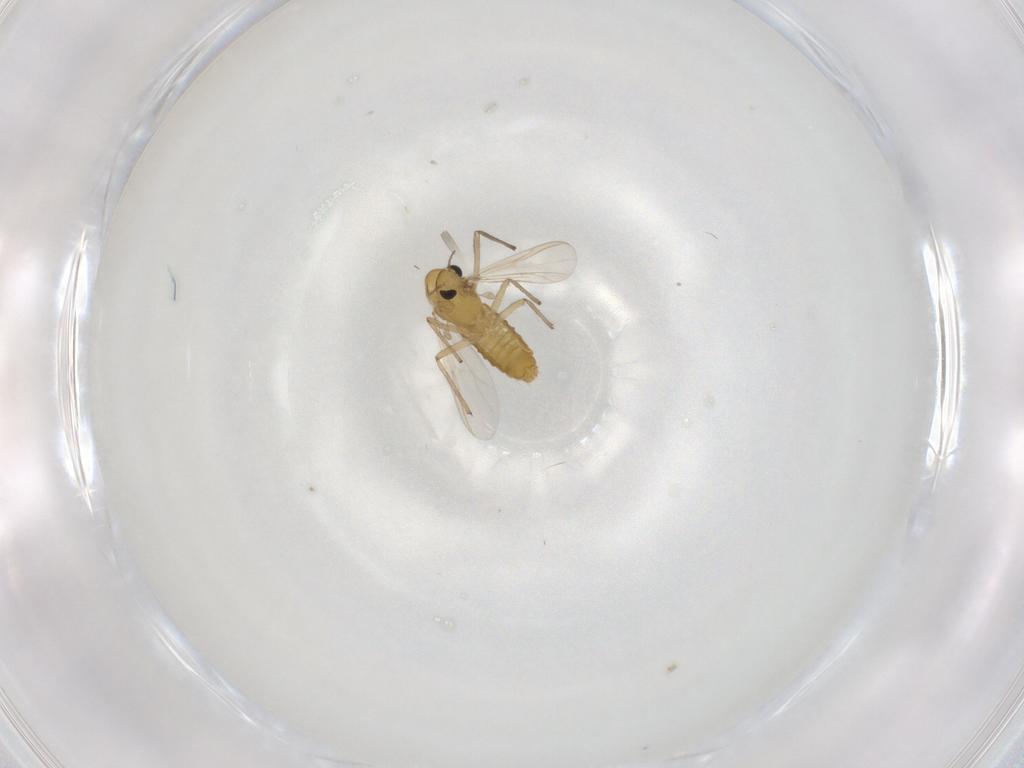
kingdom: Animalia
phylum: Arthropoda
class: Insecta
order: Diptera
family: Chironomidae
